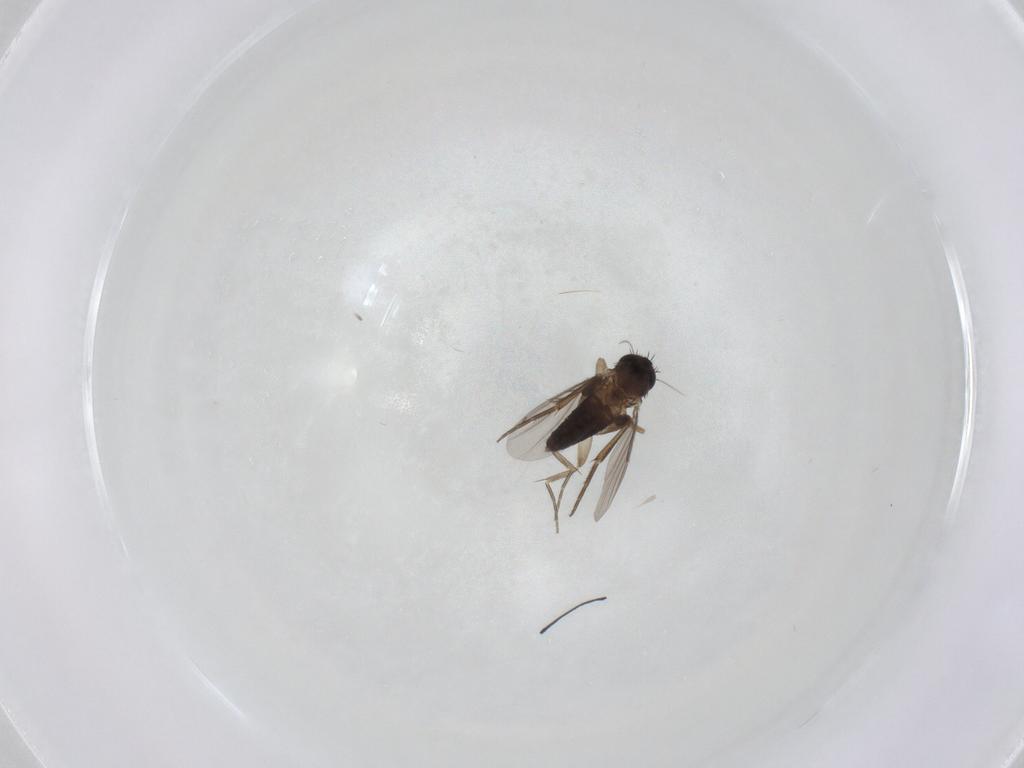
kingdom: Animalia
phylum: Arthropoda
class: Insecta
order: Diptera
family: Phoridae
